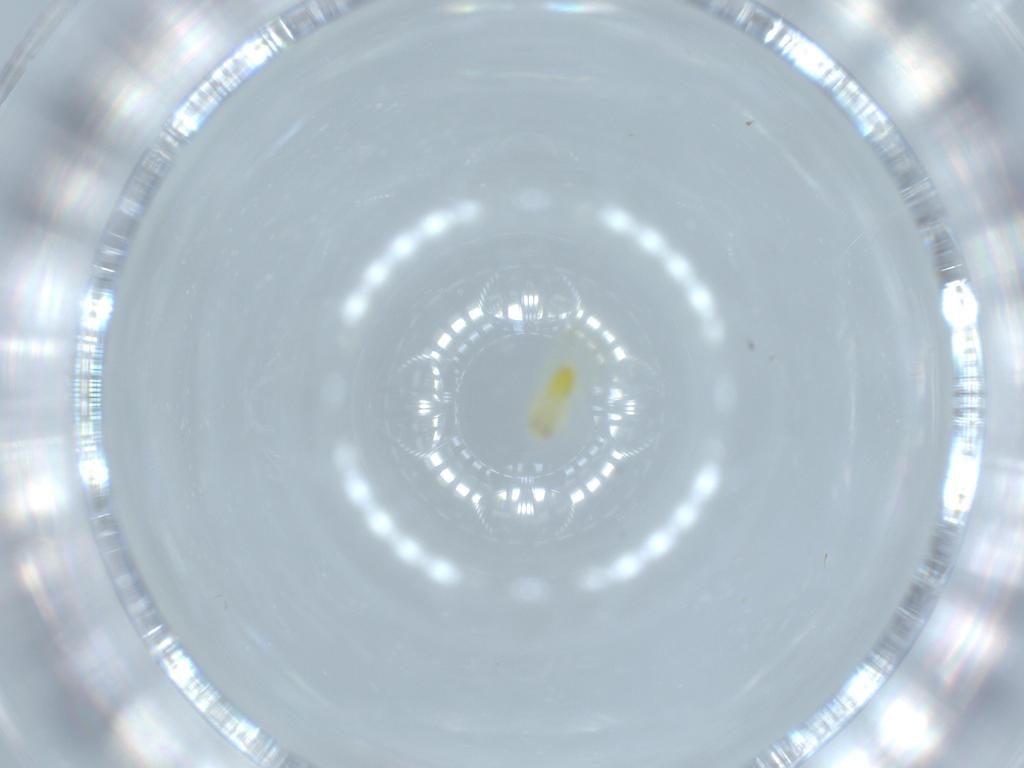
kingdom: Animalia
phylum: Arthropoda
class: Insecta
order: Hemiptera
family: Aleyrodidae
